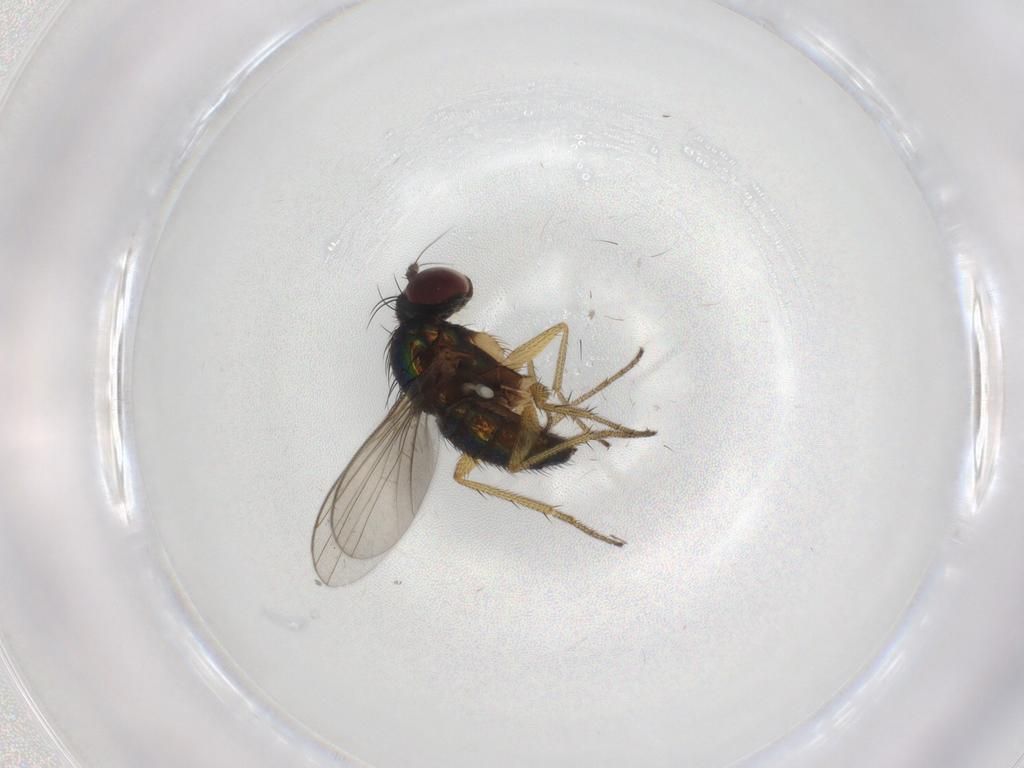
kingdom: Animalia
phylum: Arthropoda
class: Insecta
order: Diptera
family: Dolichopodidae
